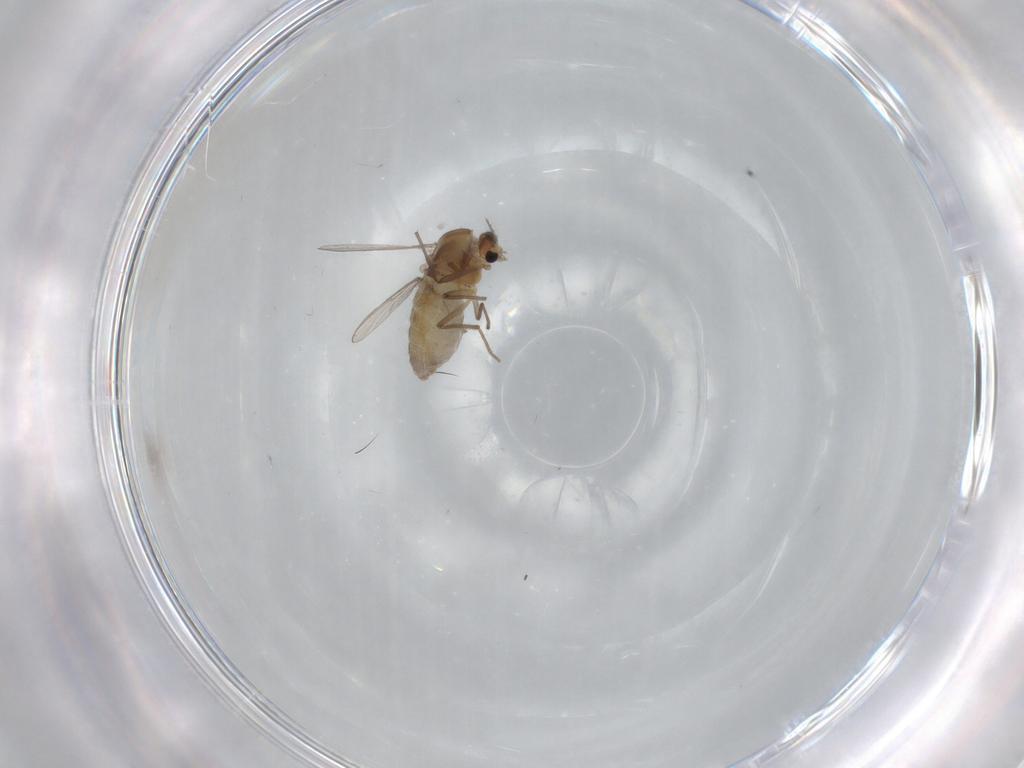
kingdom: Animalia
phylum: Arthropoda
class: Insecta
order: Diptera
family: Chironomidae
